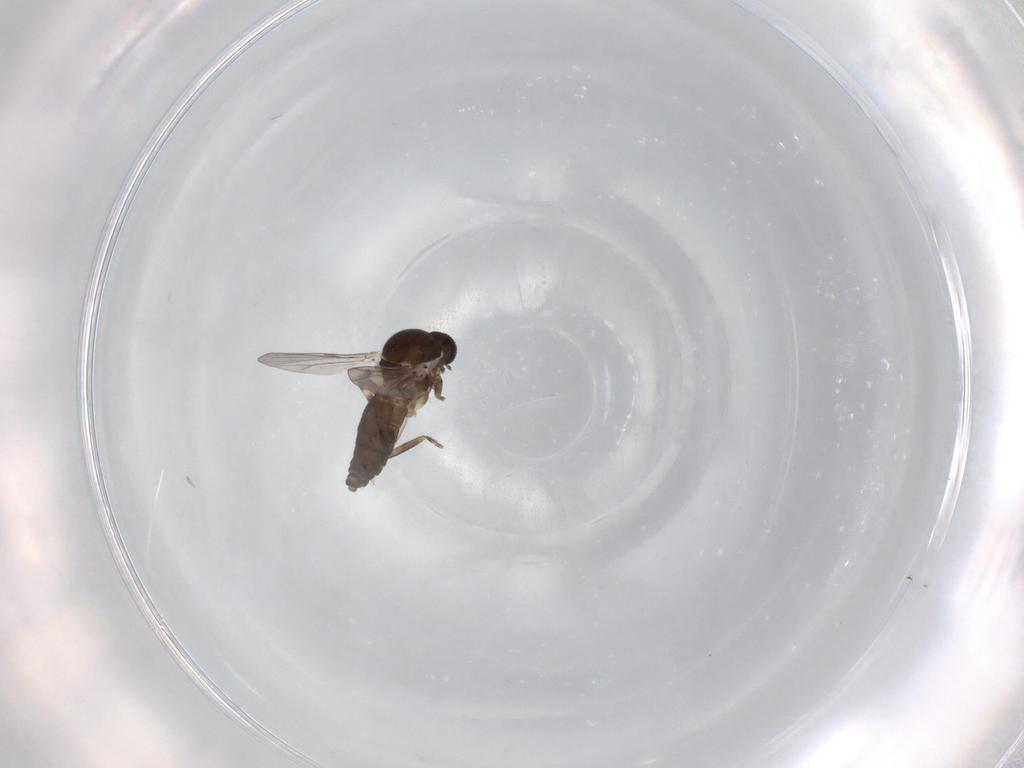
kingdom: Animalia
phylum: Arthropoda
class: Insecta
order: Diptera
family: Ceratopogonidae
